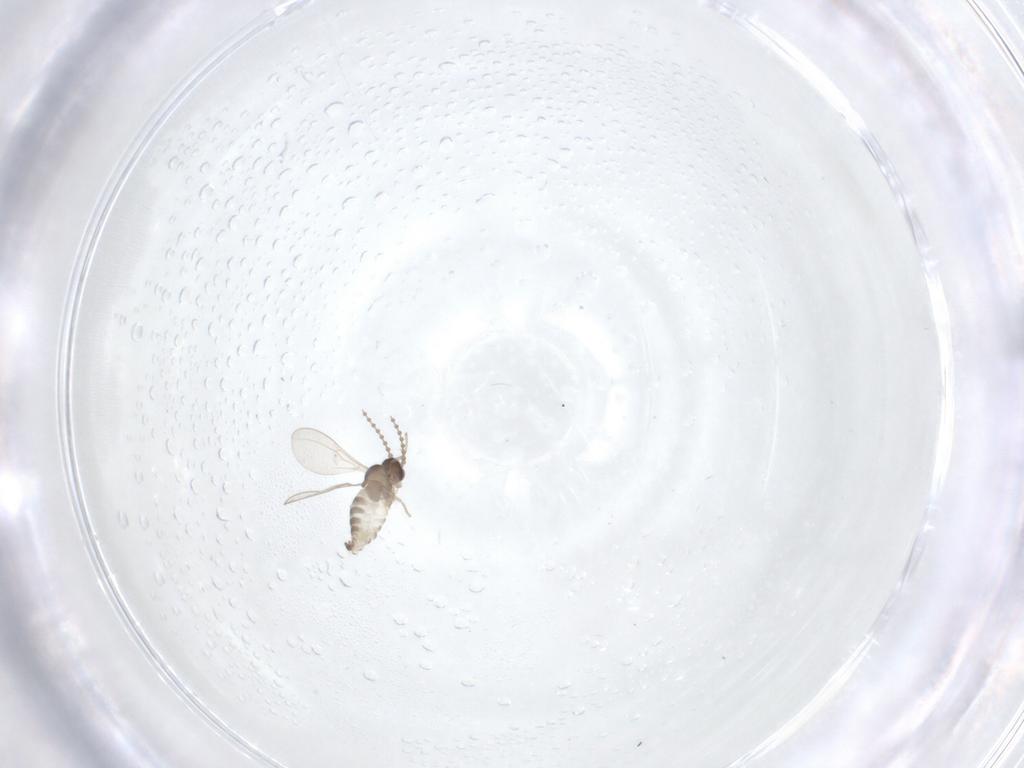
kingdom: Animalia
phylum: Arthropoda
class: Insecta
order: Diptera
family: Cecidomyiidae
